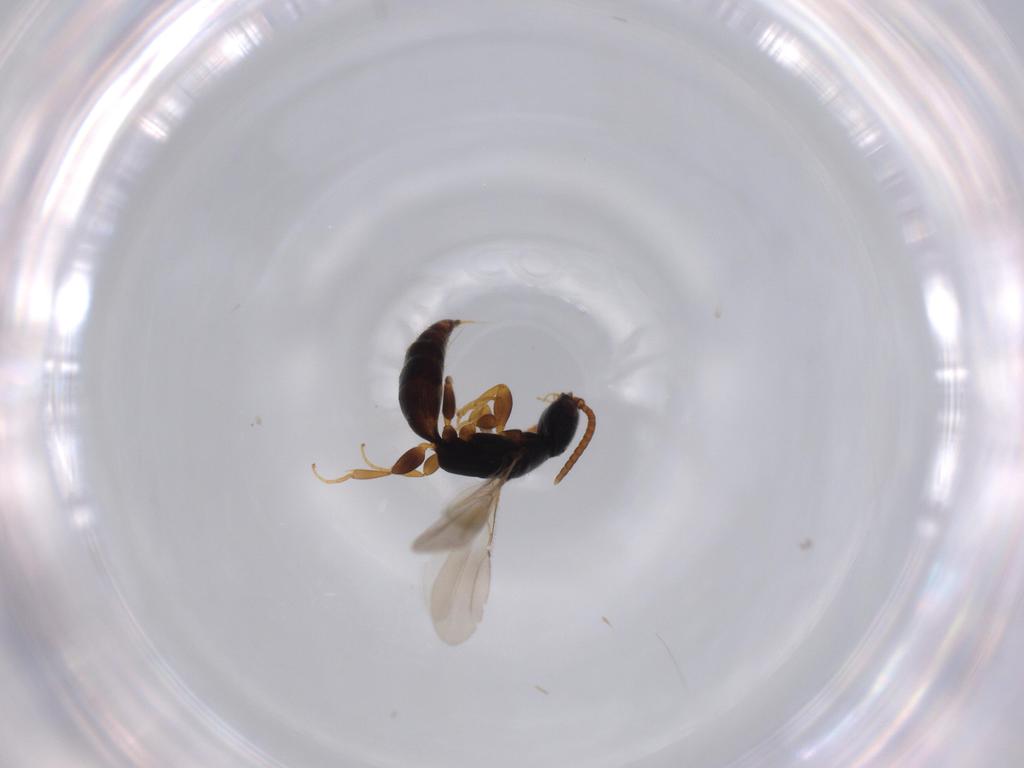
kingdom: Animalia
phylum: Arthropoda
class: Insecta
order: Hymenoptera
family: Bethylidae
